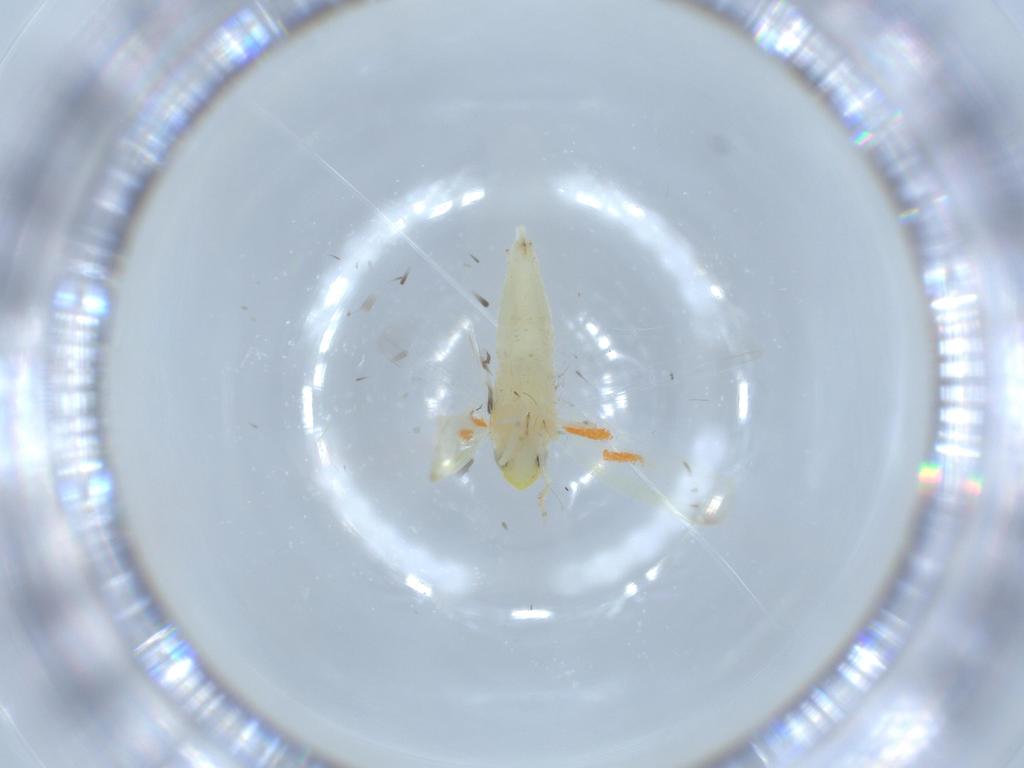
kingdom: Animalia
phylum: Arthropoda
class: Insecta
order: Hemiptera
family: Cicadellidae
